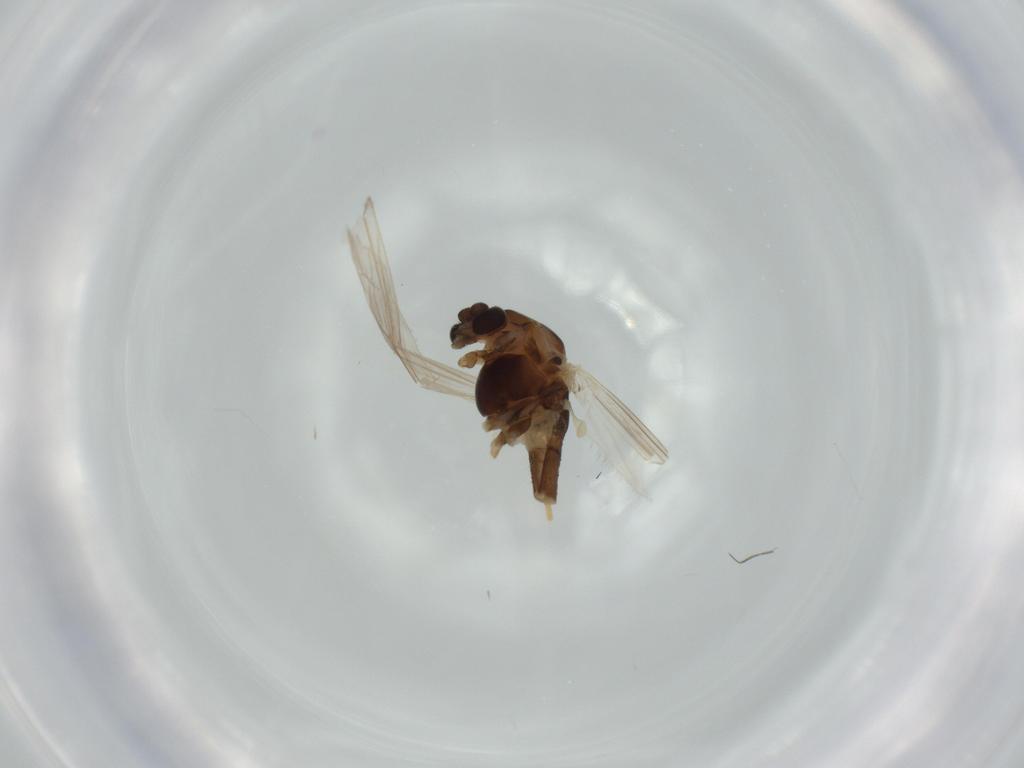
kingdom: Animalia
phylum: Arthropoda
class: Insecta
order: Diptera
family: Chironomidae
